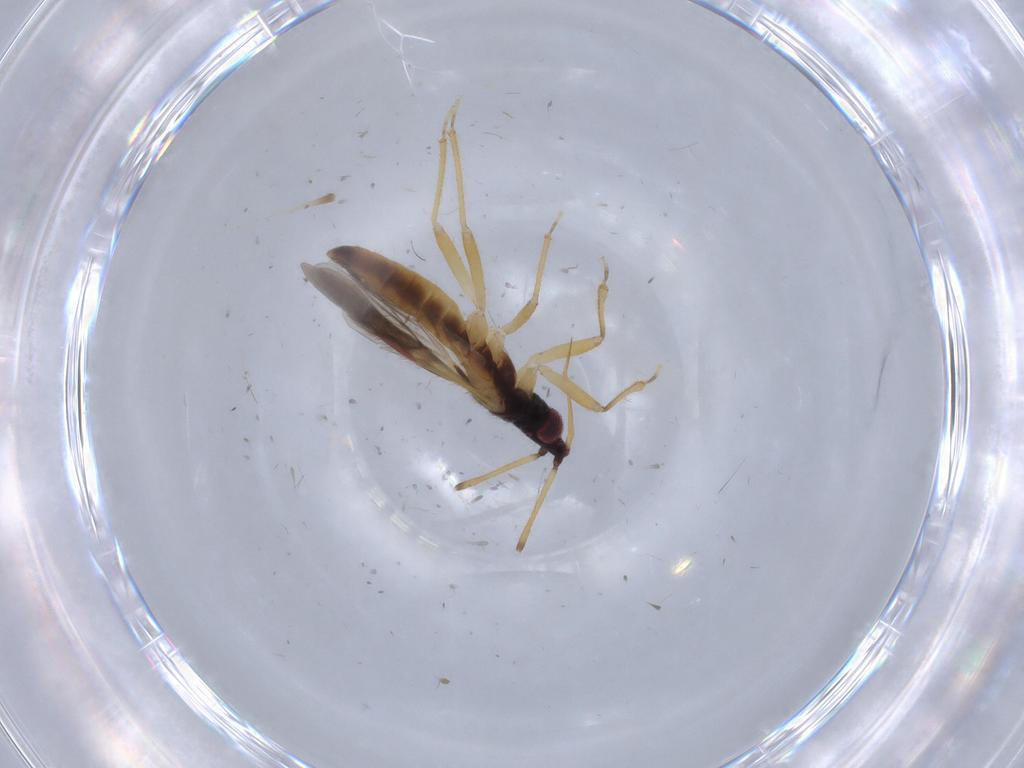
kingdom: Animalia
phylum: Arthropoda
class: Insecta
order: Hemiptera
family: Lasiochilidae
